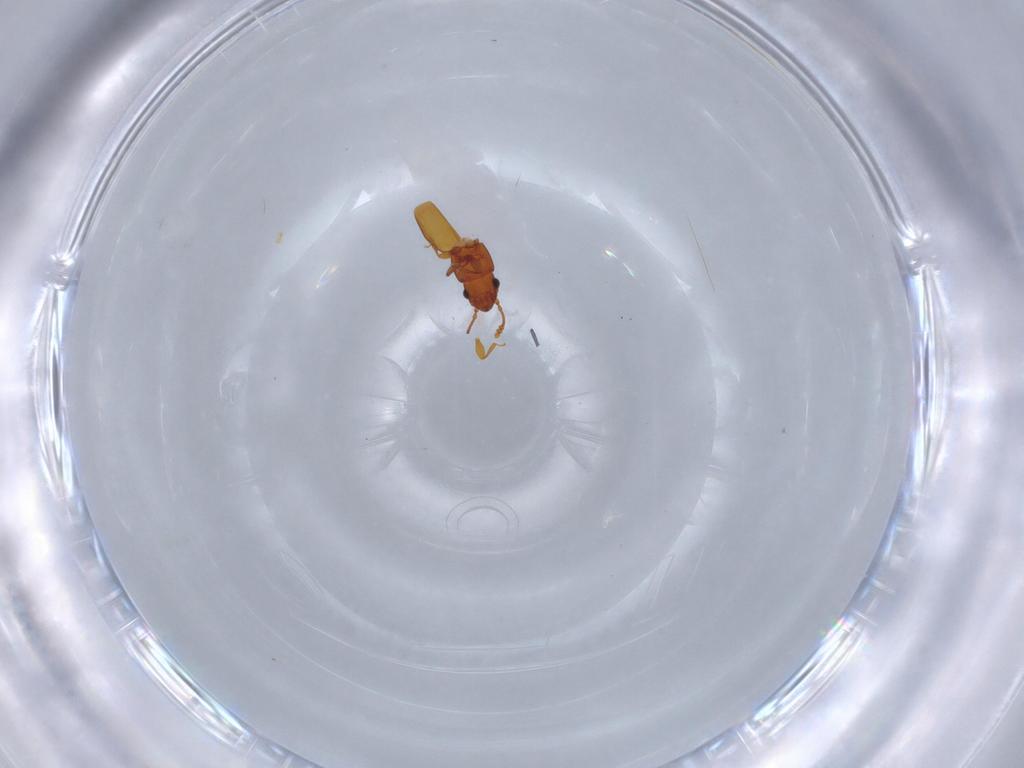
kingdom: Animalia
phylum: Arthropoda
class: Insecta
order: Coleoptera
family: Smicripidae
